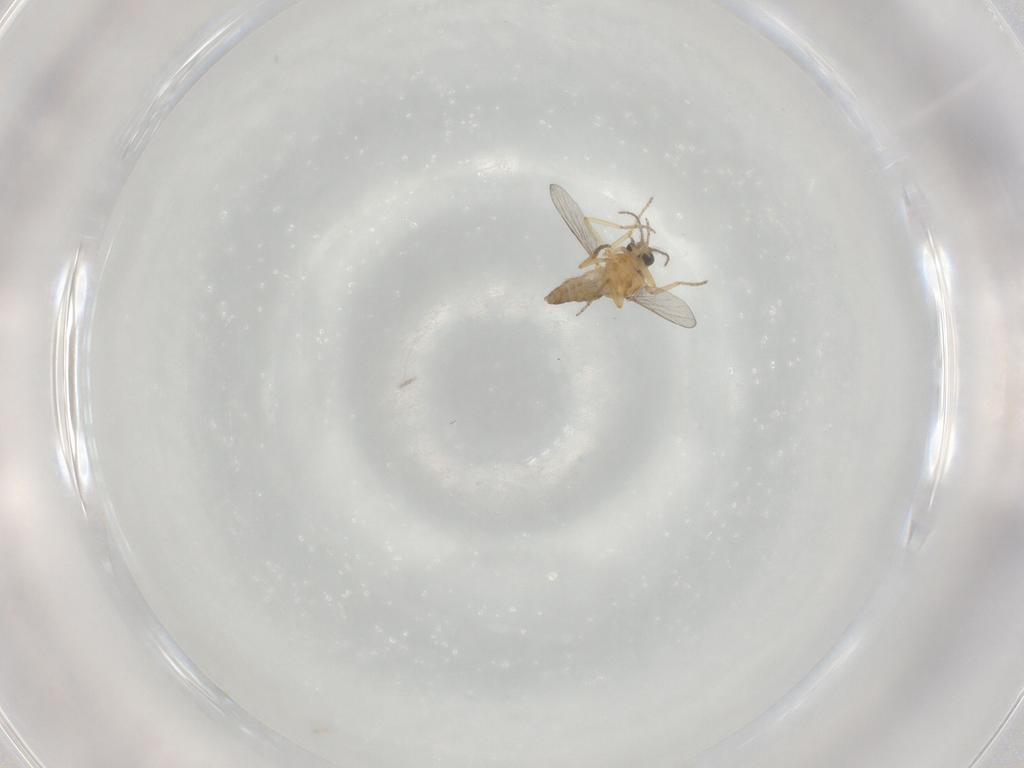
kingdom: Animalia
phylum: Arthropoda
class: Insecta
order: Diptera
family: Ceratopogonidae
